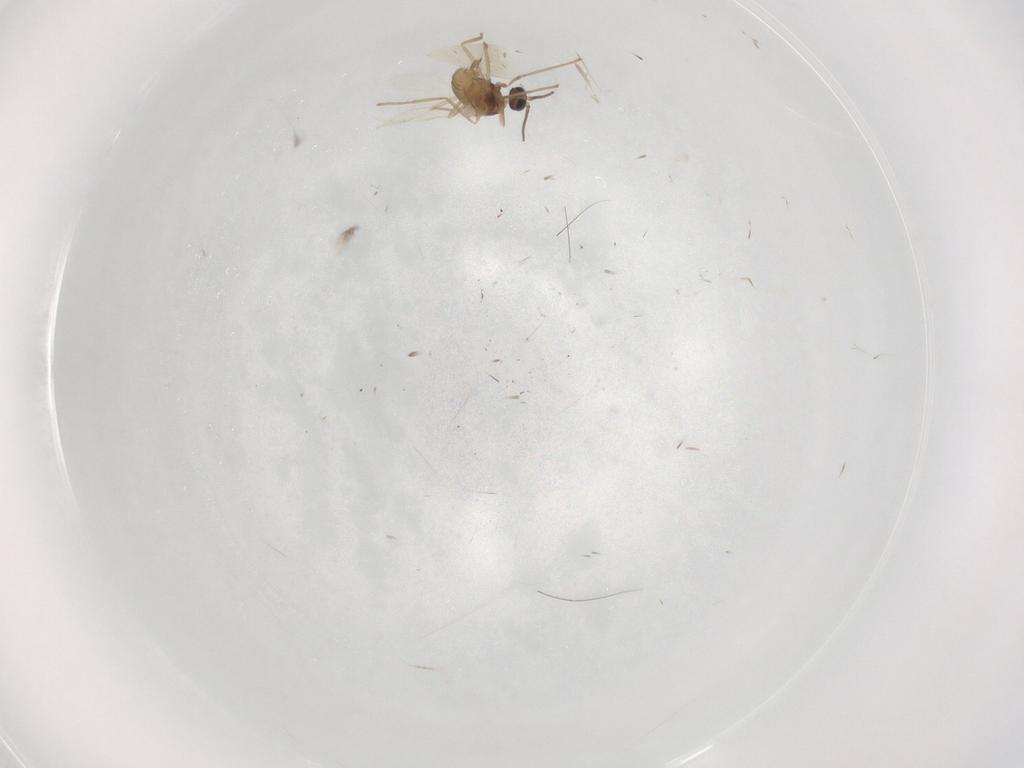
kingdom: Animalia
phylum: Arthropoda
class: Insecta
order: Diptera
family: Cecidomyiidae
